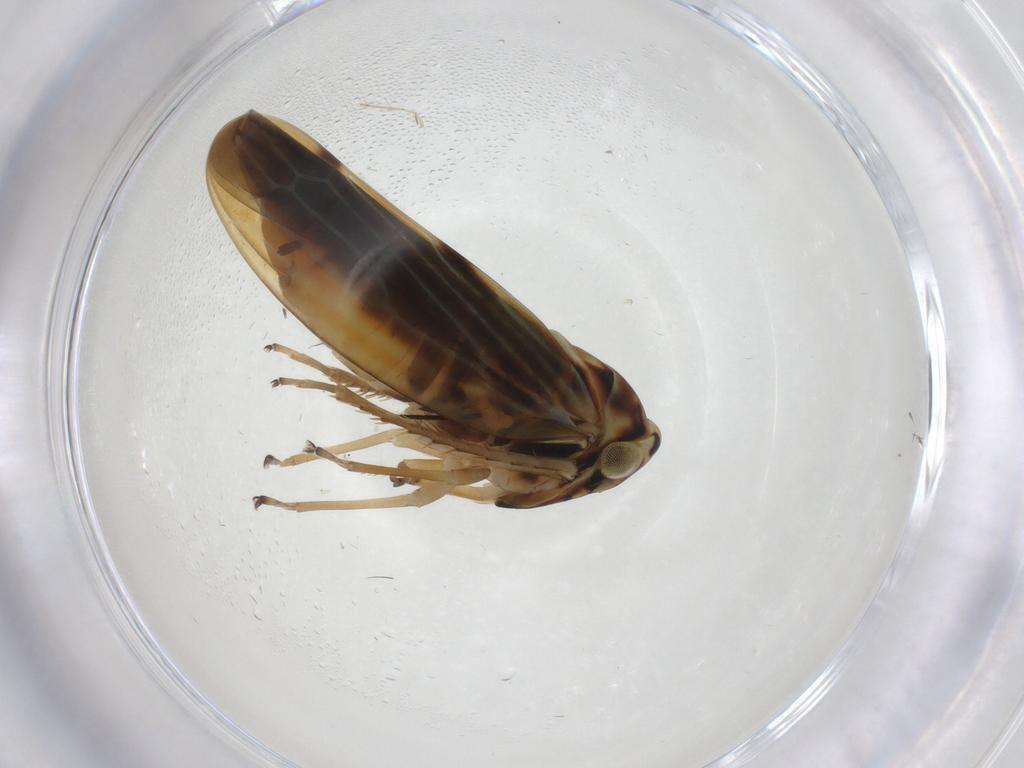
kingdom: Animalia
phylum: Arthropoda
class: Insecta
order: Hemiptera
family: Cicadellidae
